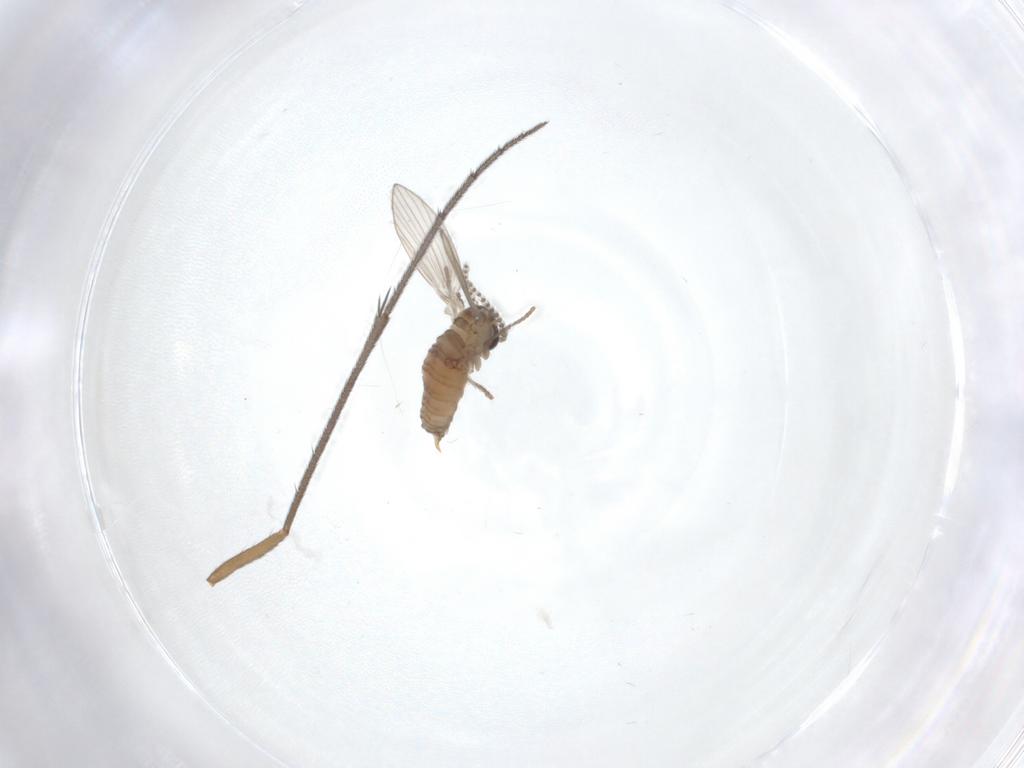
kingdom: Animalia
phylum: Arthropoda
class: Insecta
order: Diptera
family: Psychodidae
